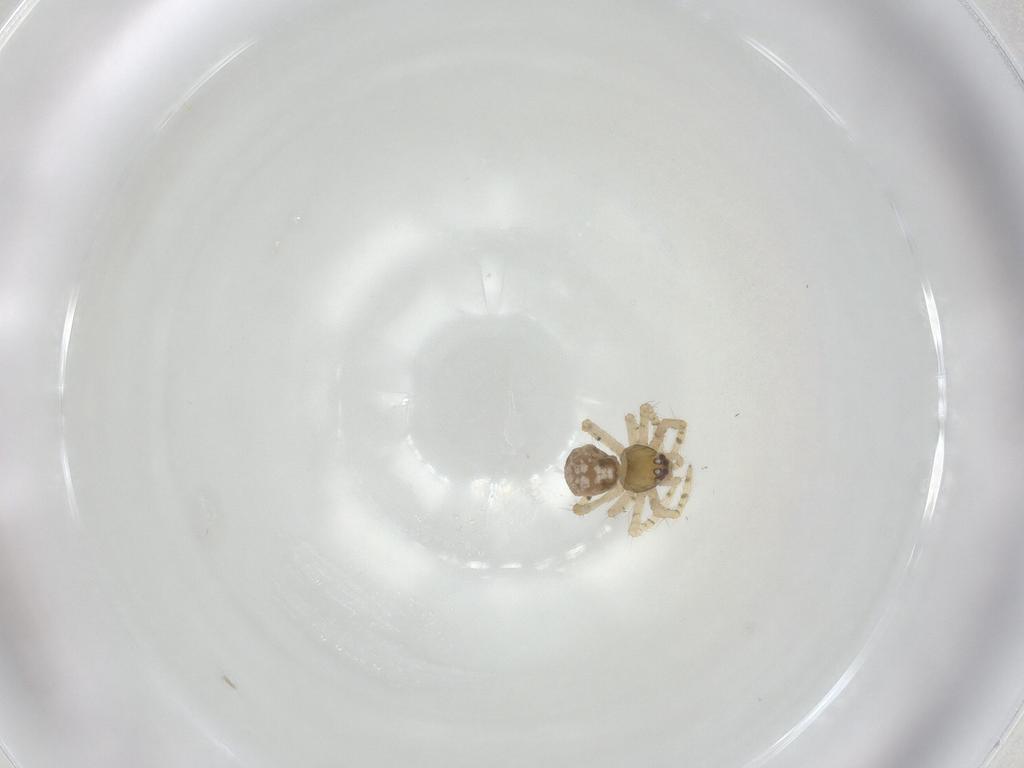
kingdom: Animalia
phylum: Arthropoda
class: Arachnida
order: Araneae
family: Theridiidae
